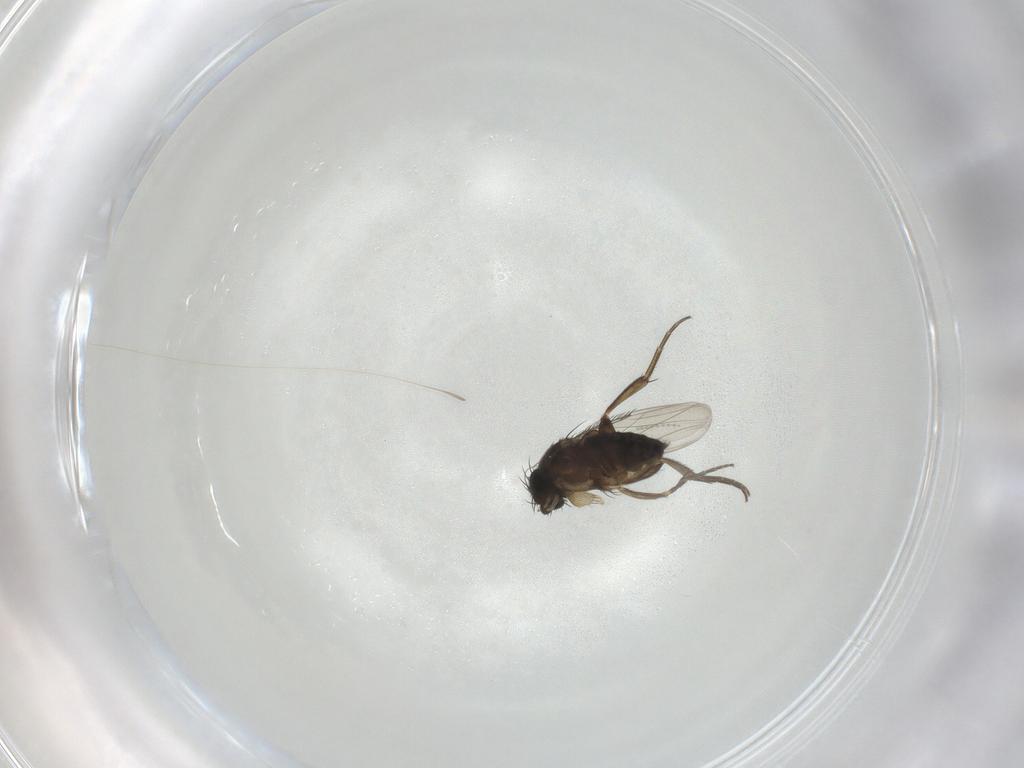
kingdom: Animalia
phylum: Arthropoda
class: Insecta
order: Diptera
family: Phoridae
